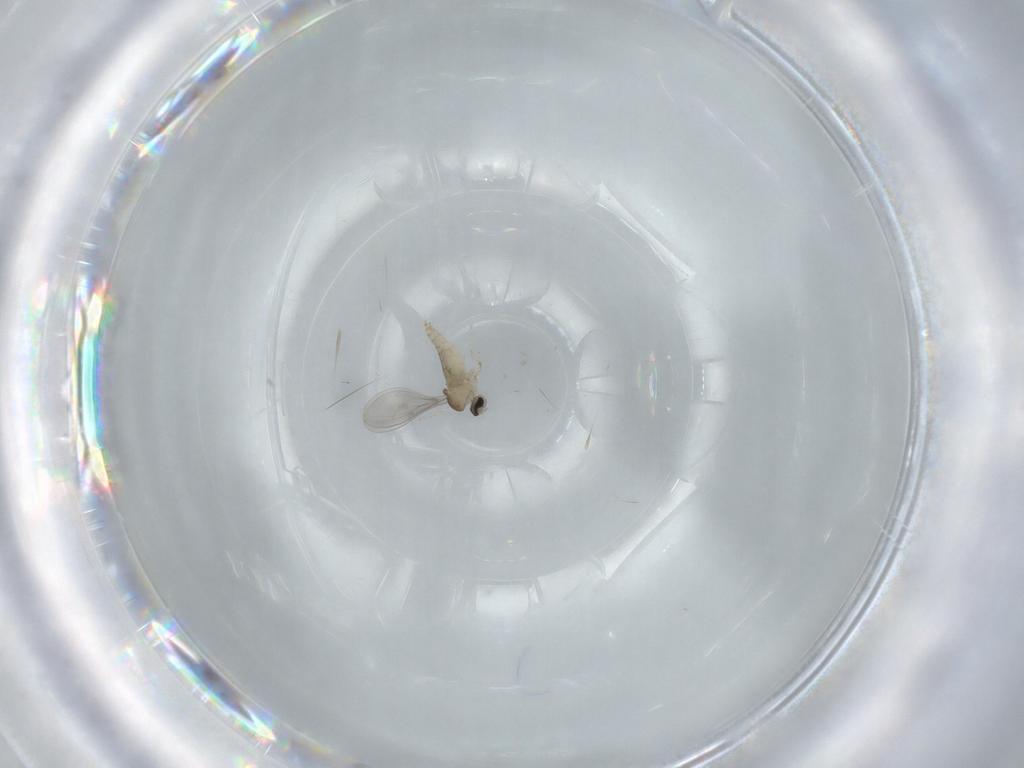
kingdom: Animalia
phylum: Arthropoda
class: Insecta
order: Diptera
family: Cecidomyiidae
